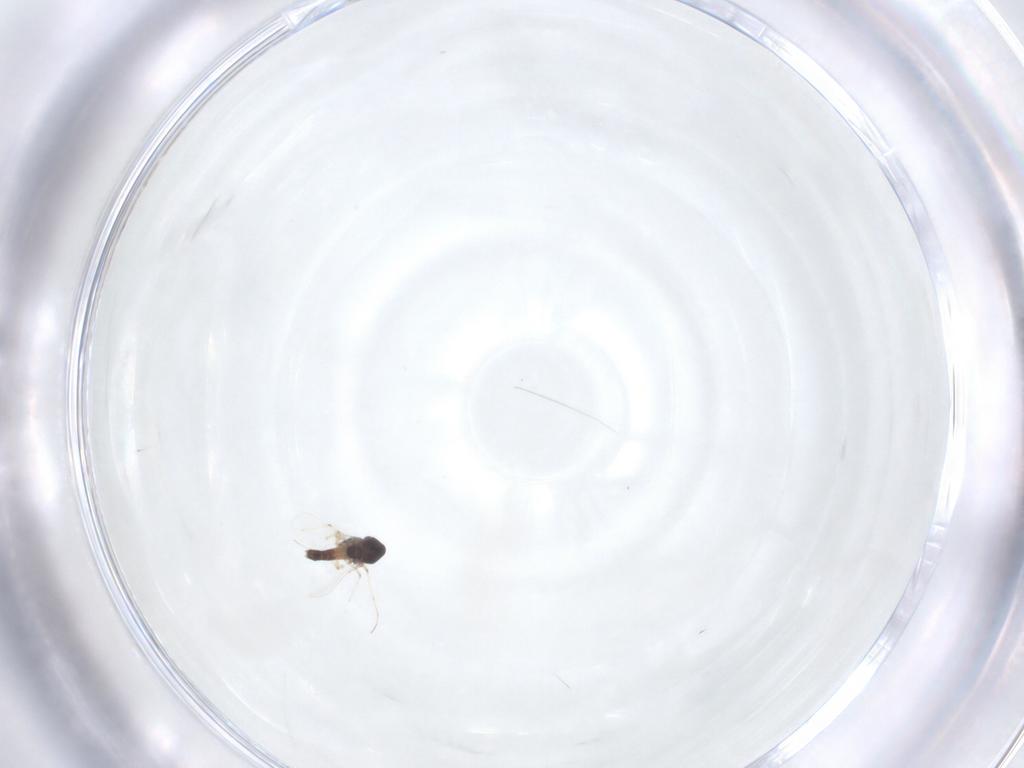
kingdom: Animalia
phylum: Arthropoda
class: Insecta
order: Diptera
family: Chironomidae
